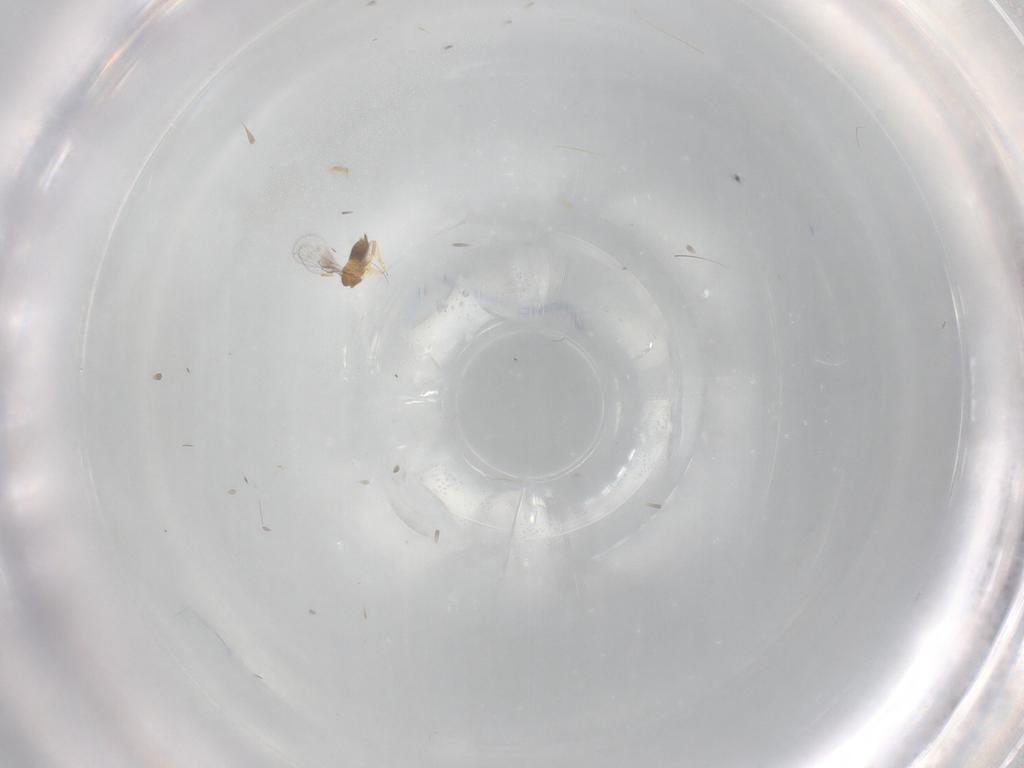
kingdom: Animalia
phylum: Arthropoda
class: Insecta
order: Hymenoptera
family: Trichogrammatidae
